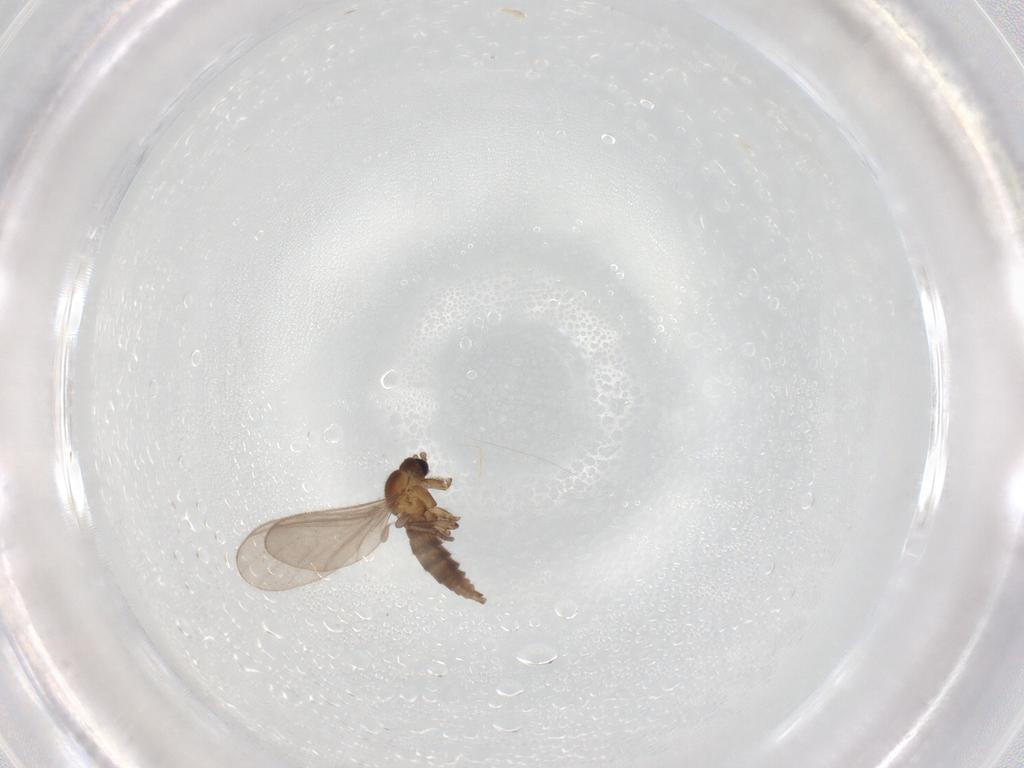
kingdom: Animalia
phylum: Arthropoda
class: Insecta
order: Diptera
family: Sciaridae
